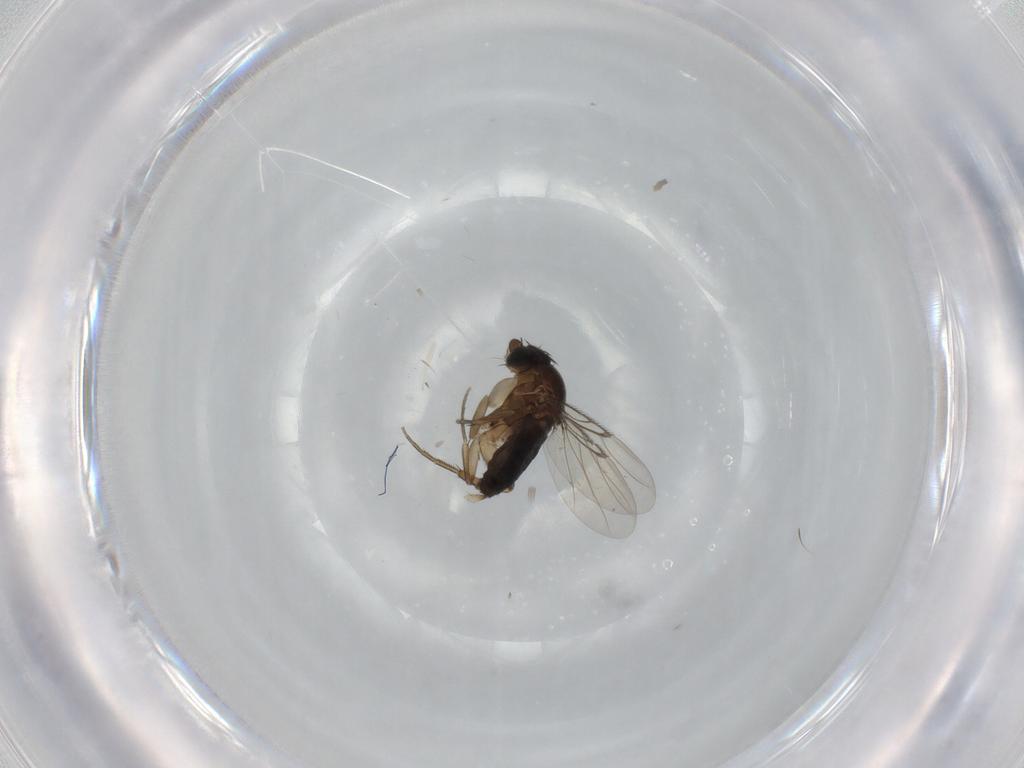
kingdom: Animalia
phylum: Arthropoda
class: Insecta
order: Diptera
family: Phoridae
